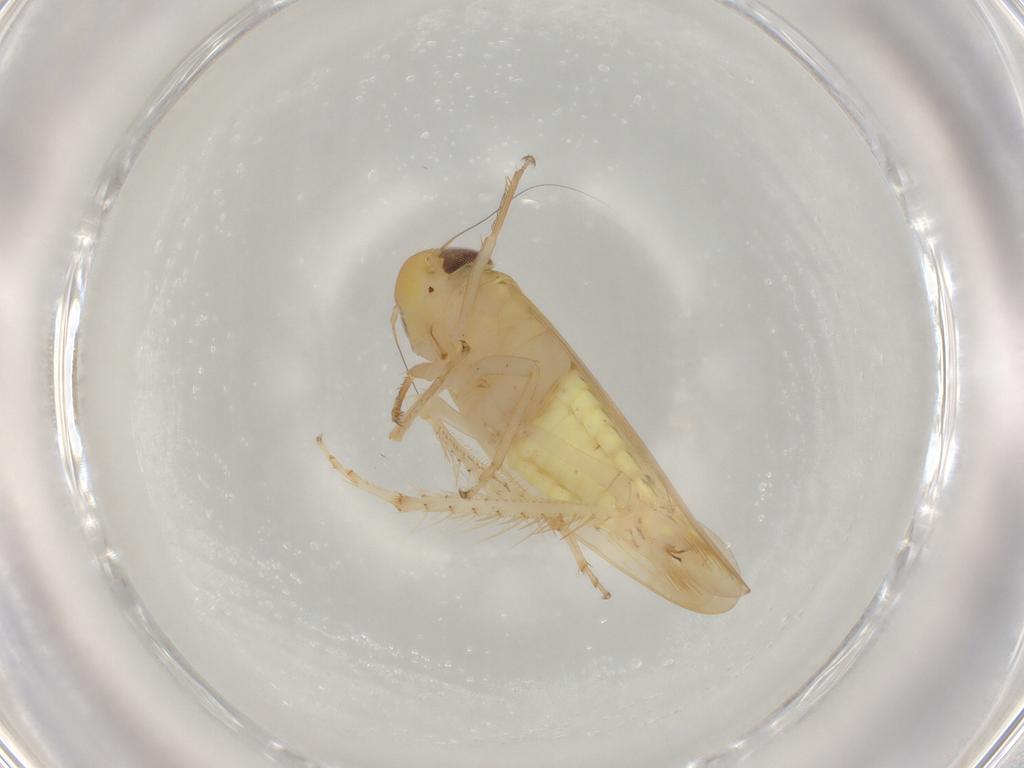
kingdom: Animalia
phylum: Arthropoda
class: Insecta
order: Hemiptera
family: Cicadellidae
